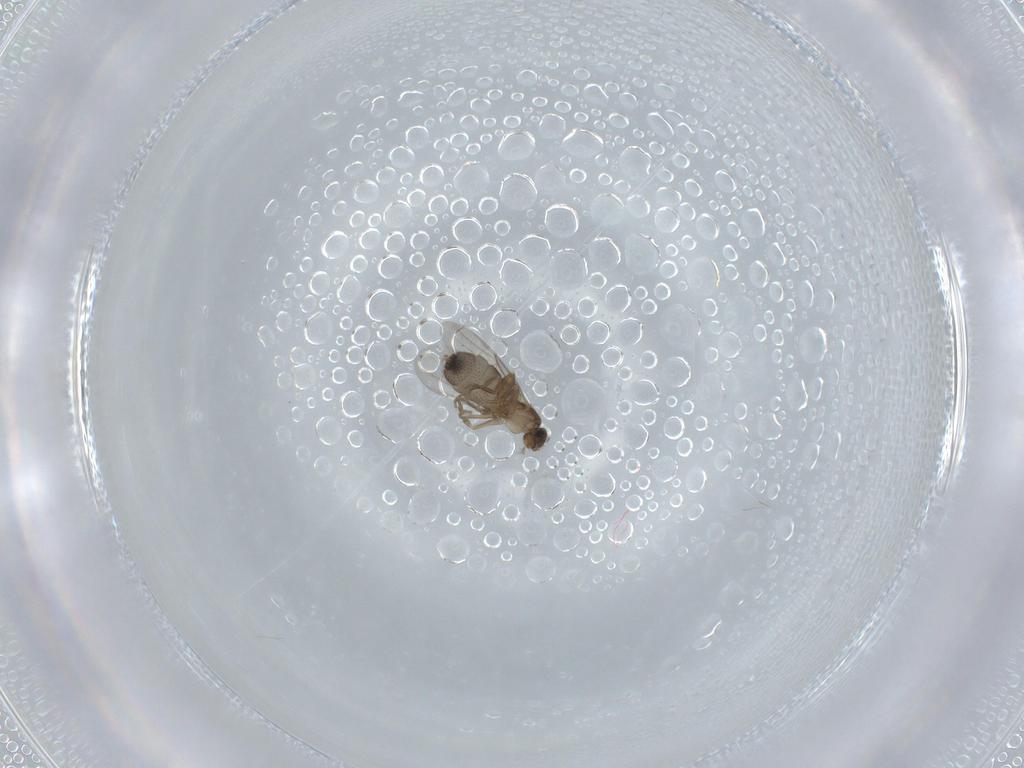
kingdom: Animalia
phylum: Arthropoda
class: Insecta
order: Diptera
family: Phoridae
